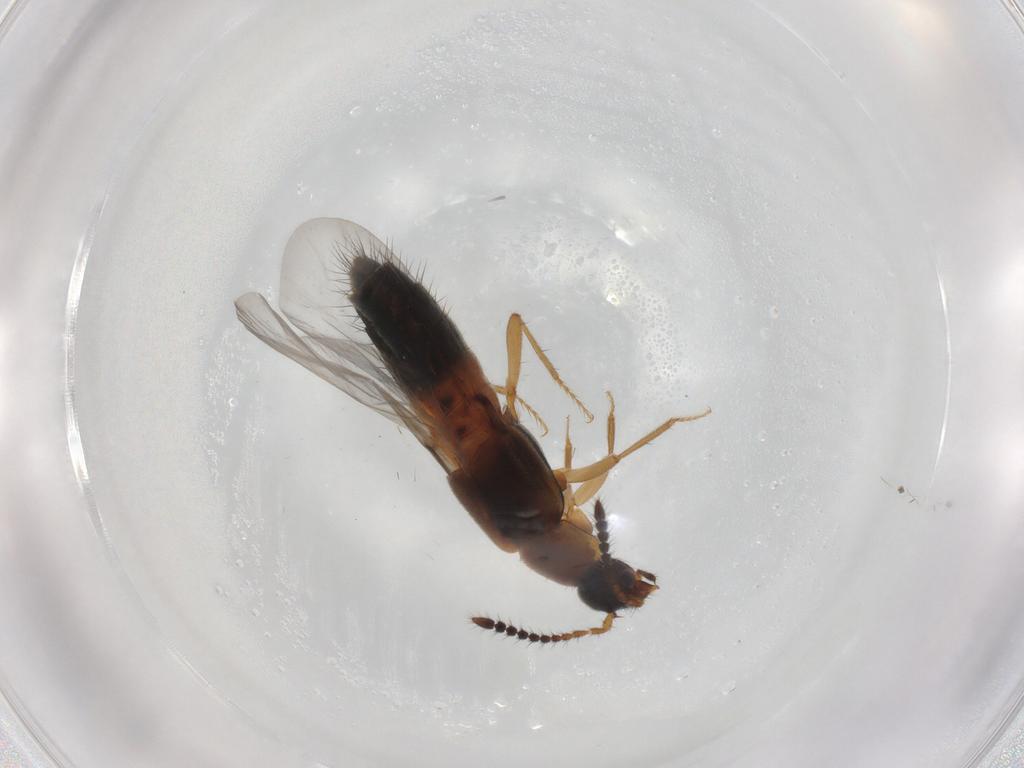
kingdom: Animalia
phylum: Arthropoda
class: Insecta
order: Coleoptera
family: Staphylinidae
